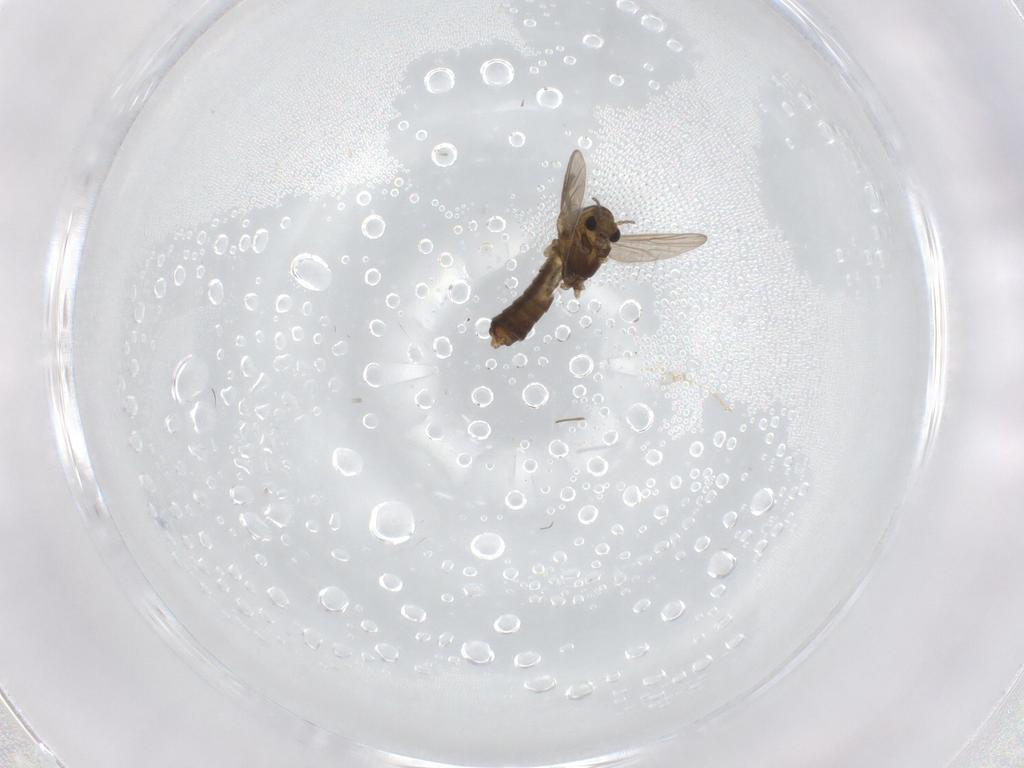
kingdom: Animalia
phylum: Arthropoda
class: Insecta
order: Diptera
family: Chironomidae
